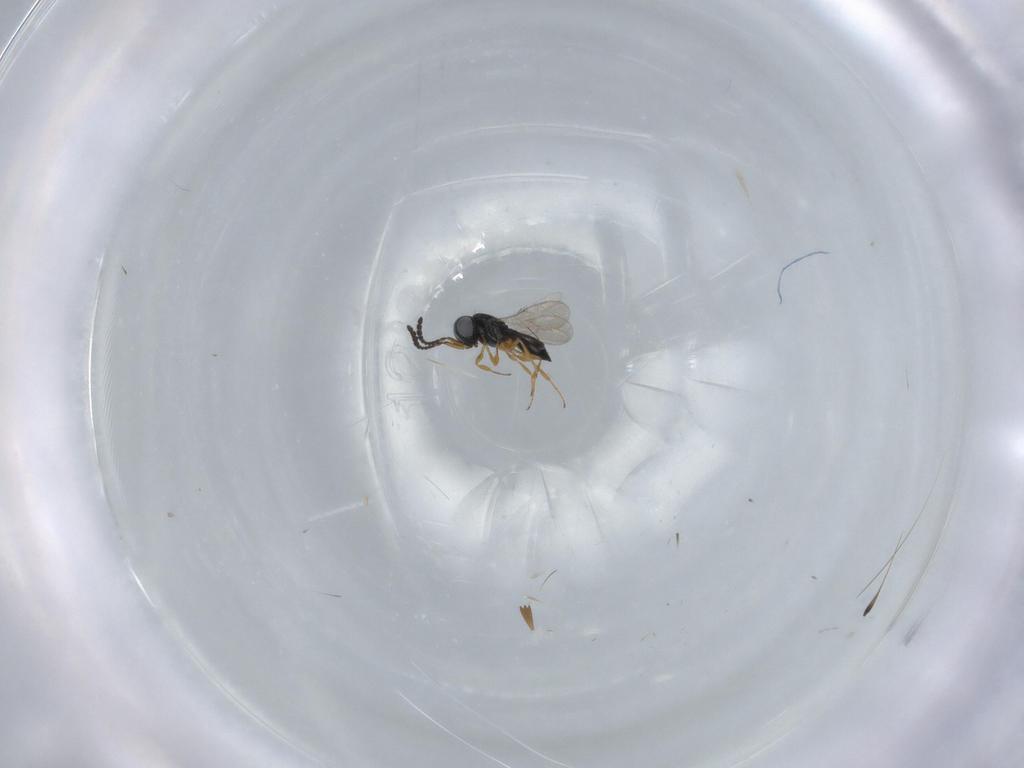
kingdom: Animalia
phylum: Arthropoda
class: Insecta
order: Hymenoptera
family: Scelionidae
